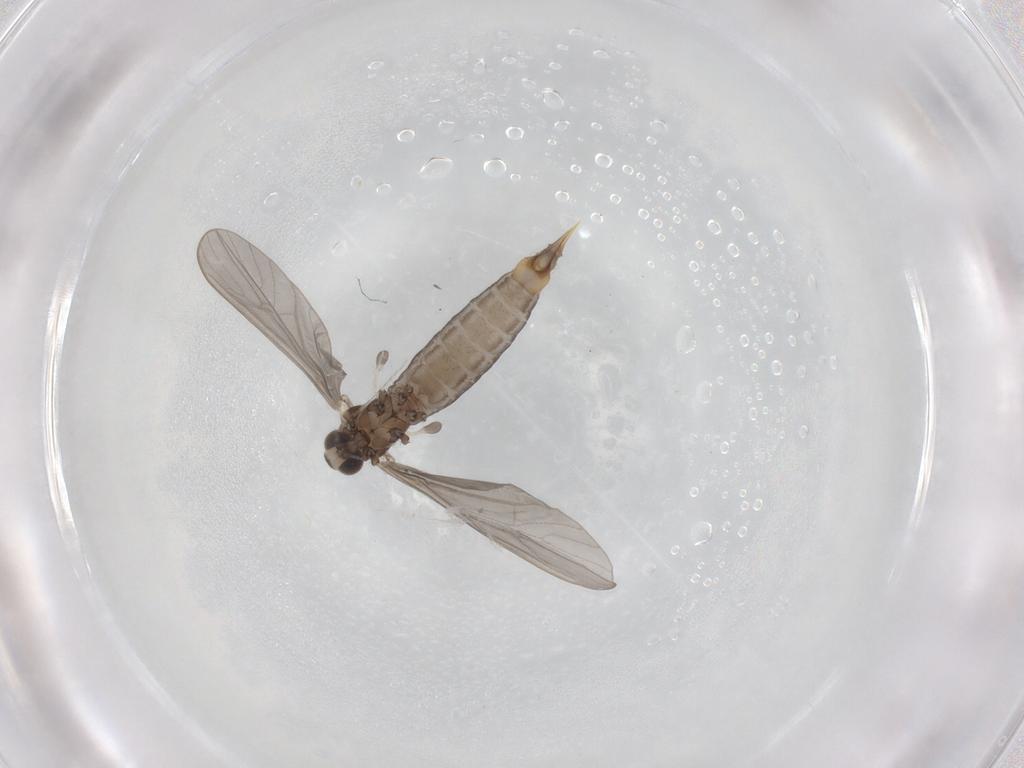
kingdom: Animalia
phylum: Arthropoda
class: Insecta
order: Diptera
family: Limoniidae
